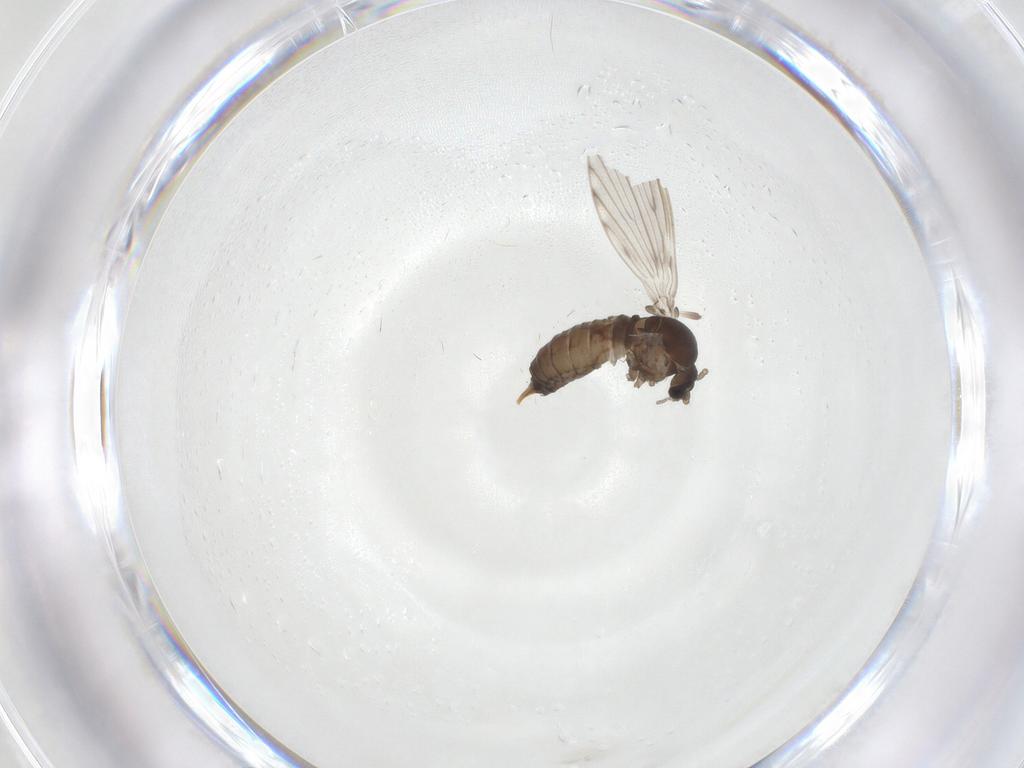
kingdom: Animalia
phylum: Arthropoda
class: Insecta
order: Diptera
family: Psychodidae
